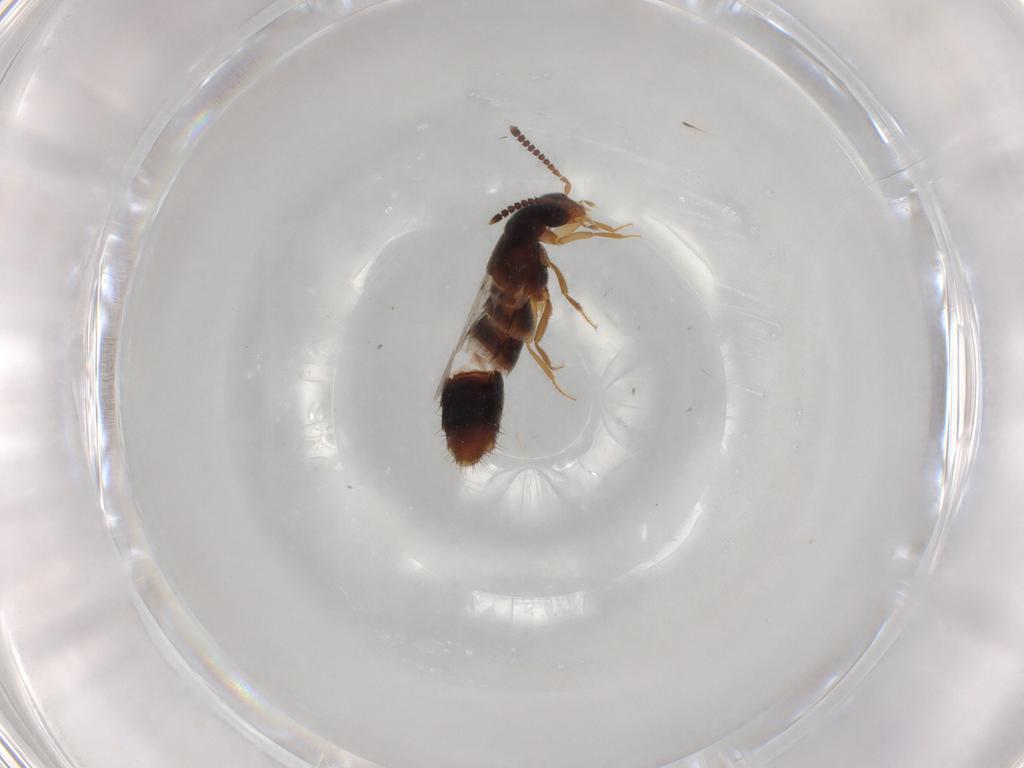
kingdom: Animalia
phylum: Arthropoda
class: Insecta
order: Coleoptera
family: Staphylinidae
